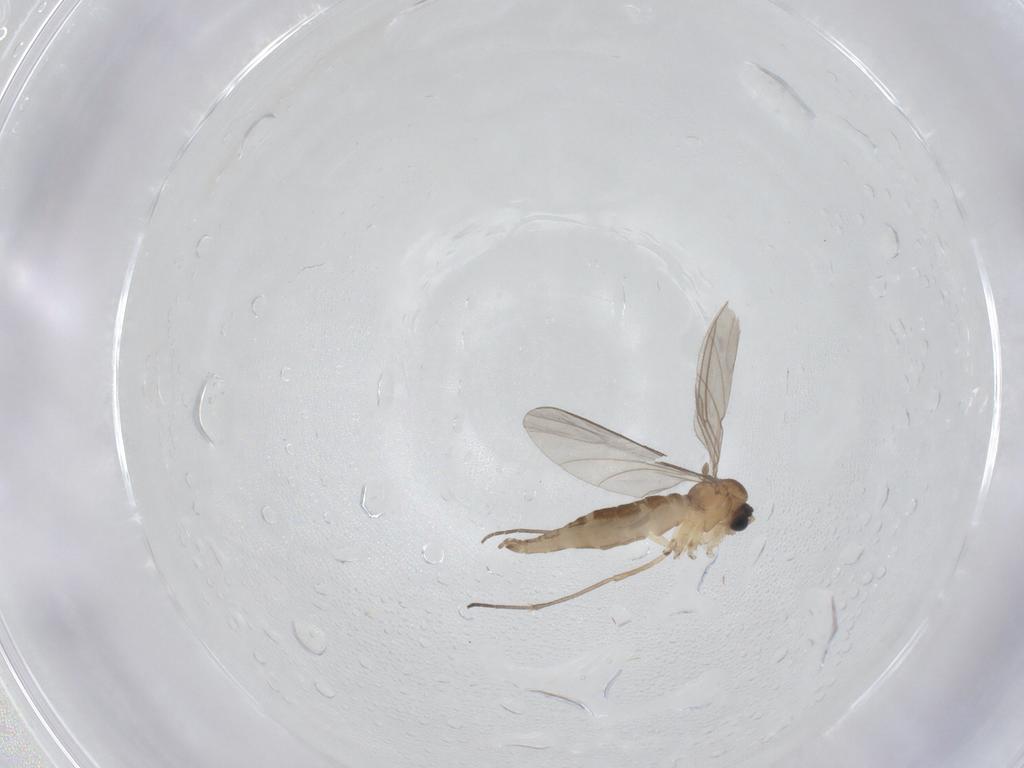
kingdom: Animalia
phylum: Arthropoda
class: Insecta
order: Diptera
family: Sciaridae
